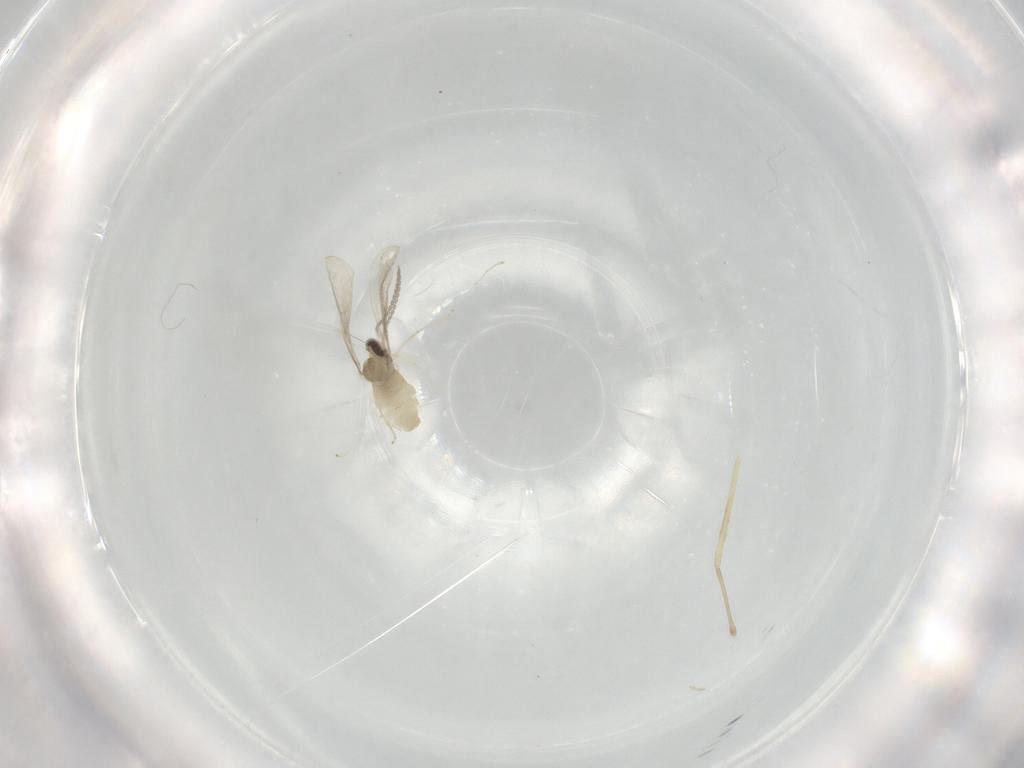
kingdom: Animalia
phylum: Arthropoda
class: Insecta
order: Diptera
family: Cecidomyiidae
